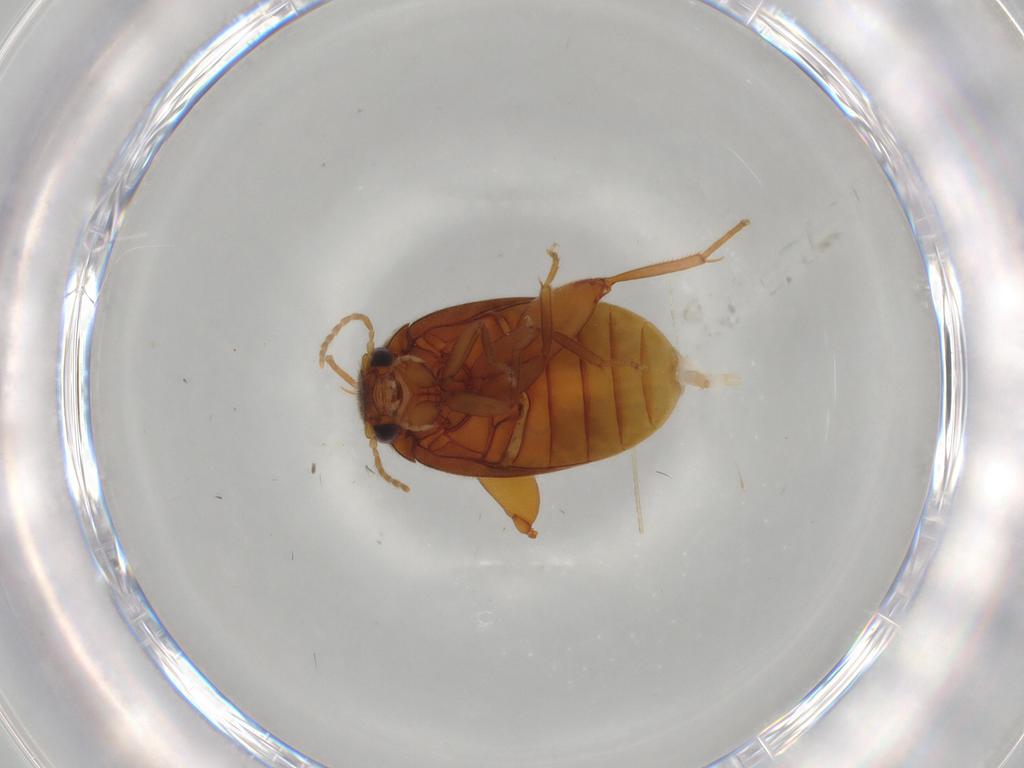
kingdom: Animalia
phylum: Arthropoda
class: Insecta
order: Coleoptera
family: Scirtidae
